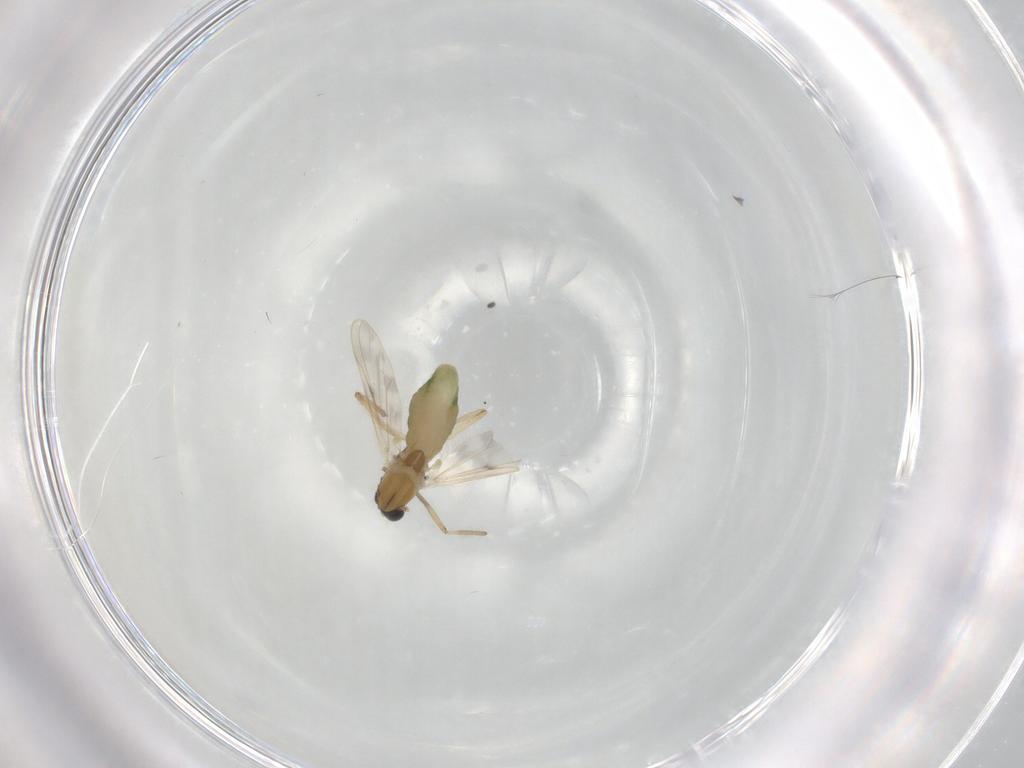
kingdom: Animalia
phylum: Arthropoda
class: Insecta
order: Diptera
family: Chironomidae
